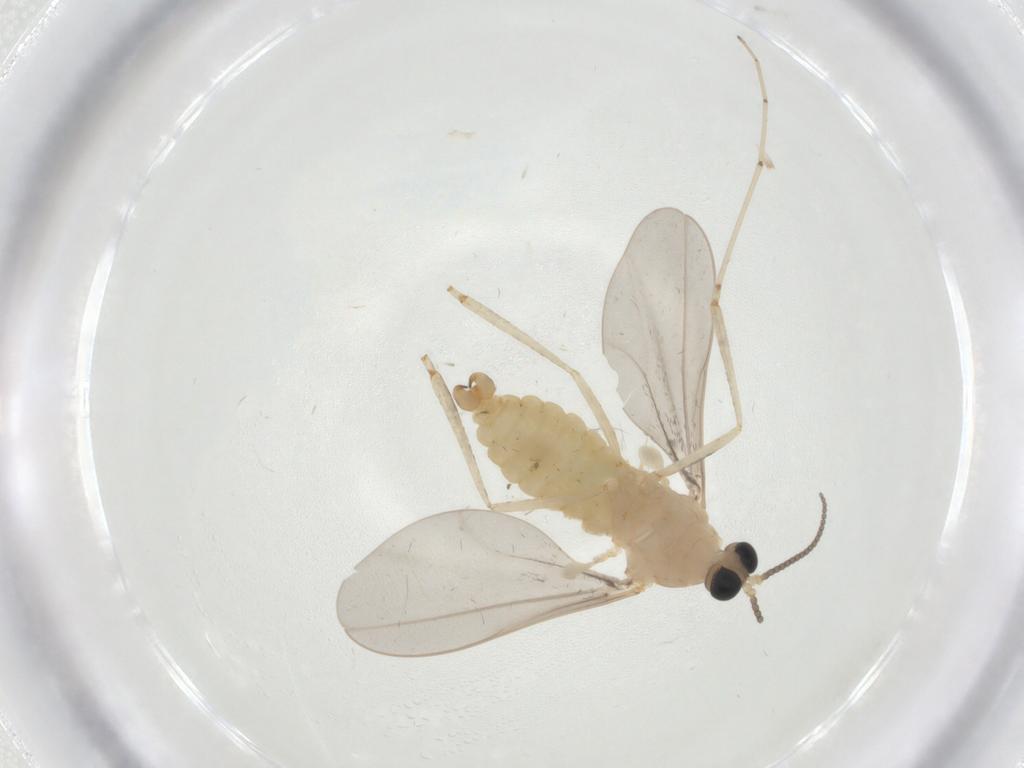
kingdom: Animalia
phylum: Arthropoda
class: Insecta
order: Diptera
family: Cecidomyiidae
